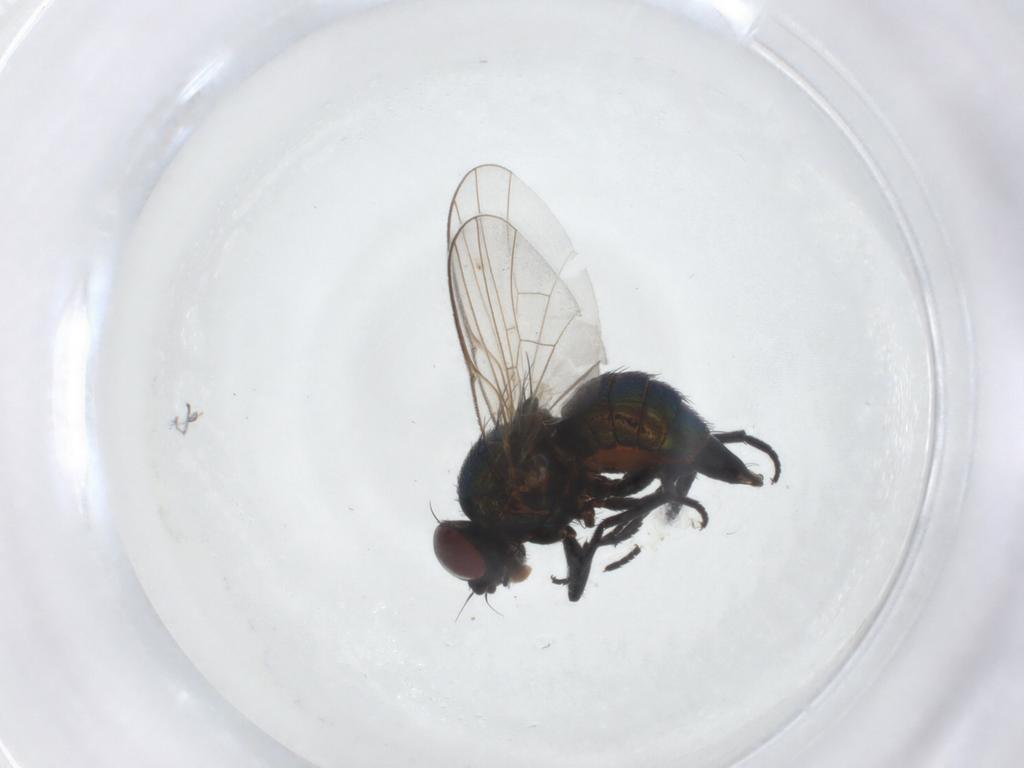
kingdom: Animalia
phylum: Arthropoda
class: Insecta
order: Diptera
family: Agromyzidae
